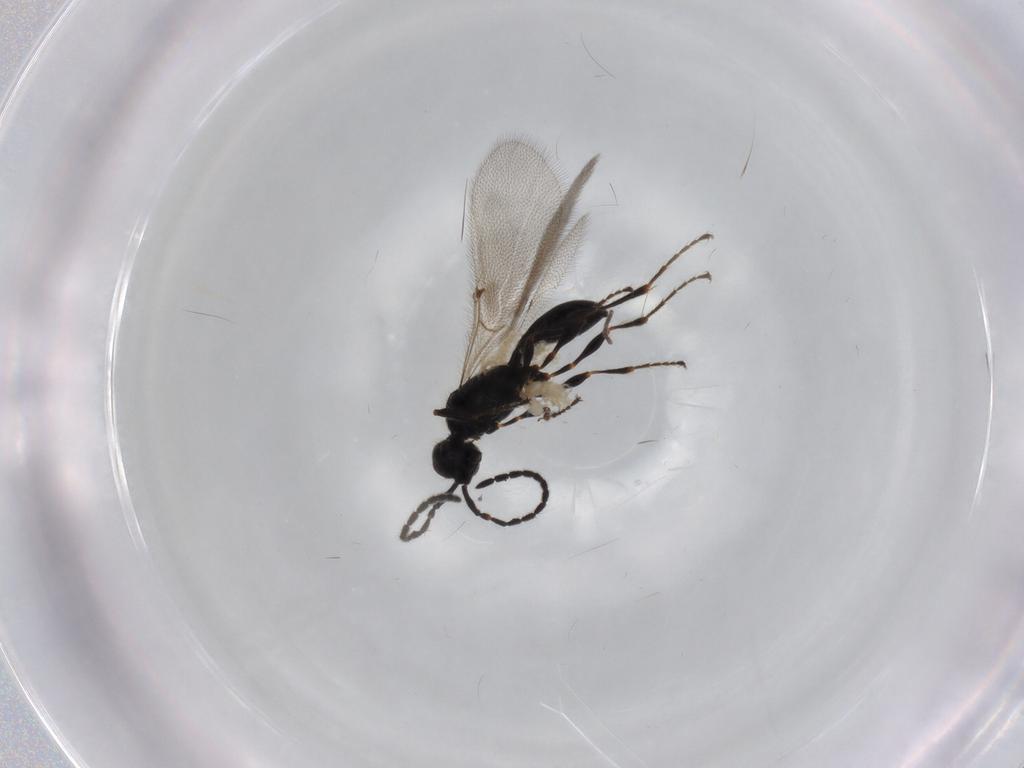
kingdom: Animalia
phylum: Arthropoda
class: Insecta
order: Hymenoptera
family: Diapriidae
